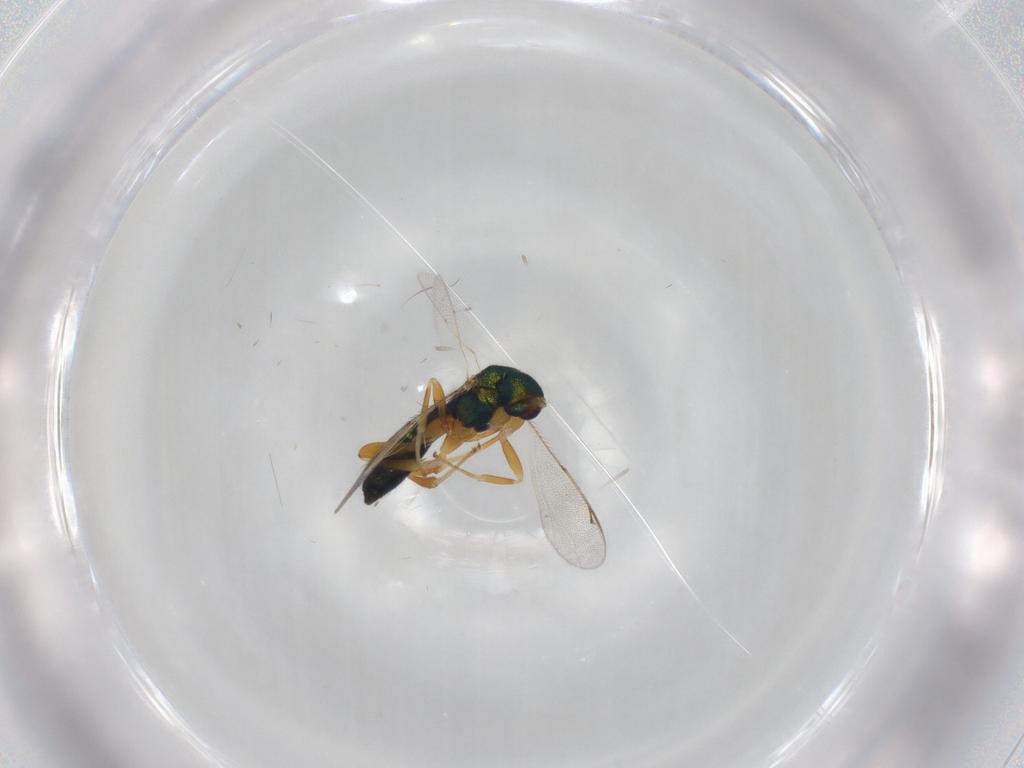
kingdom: Animalia
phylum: Arthropoda
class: Insecta
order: Hymenoptera
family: Cleonyminae
